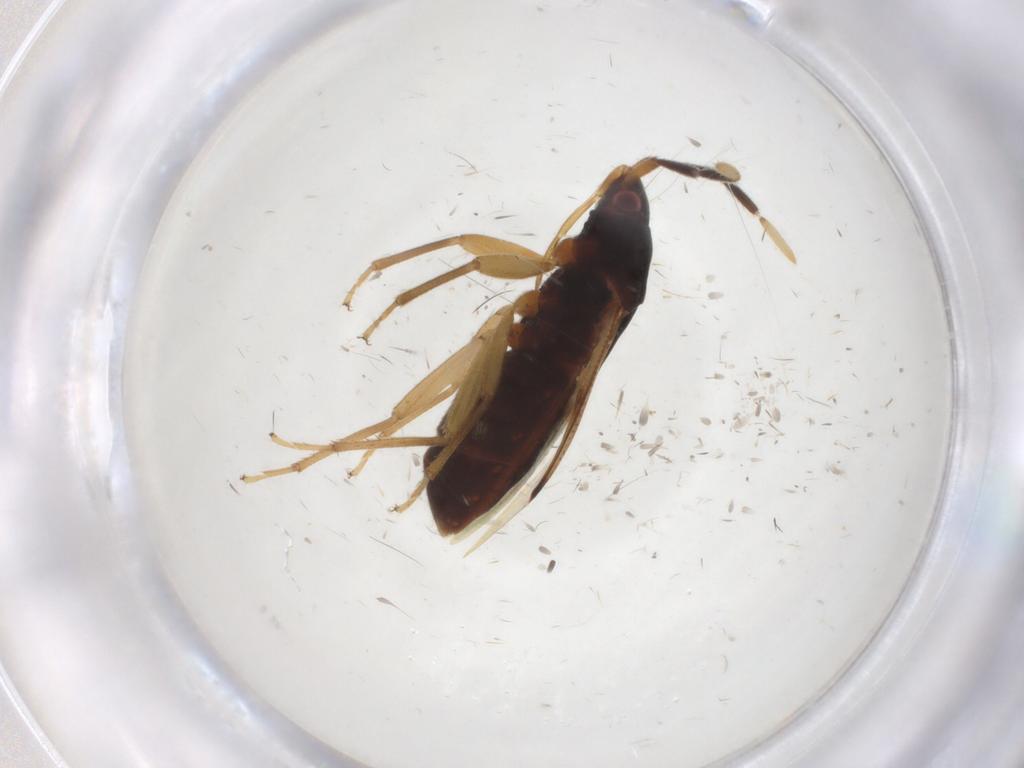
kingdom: Animalia
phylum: Arthropoda
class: Insecta
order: Hemiptera
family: Rhyparochromidae
